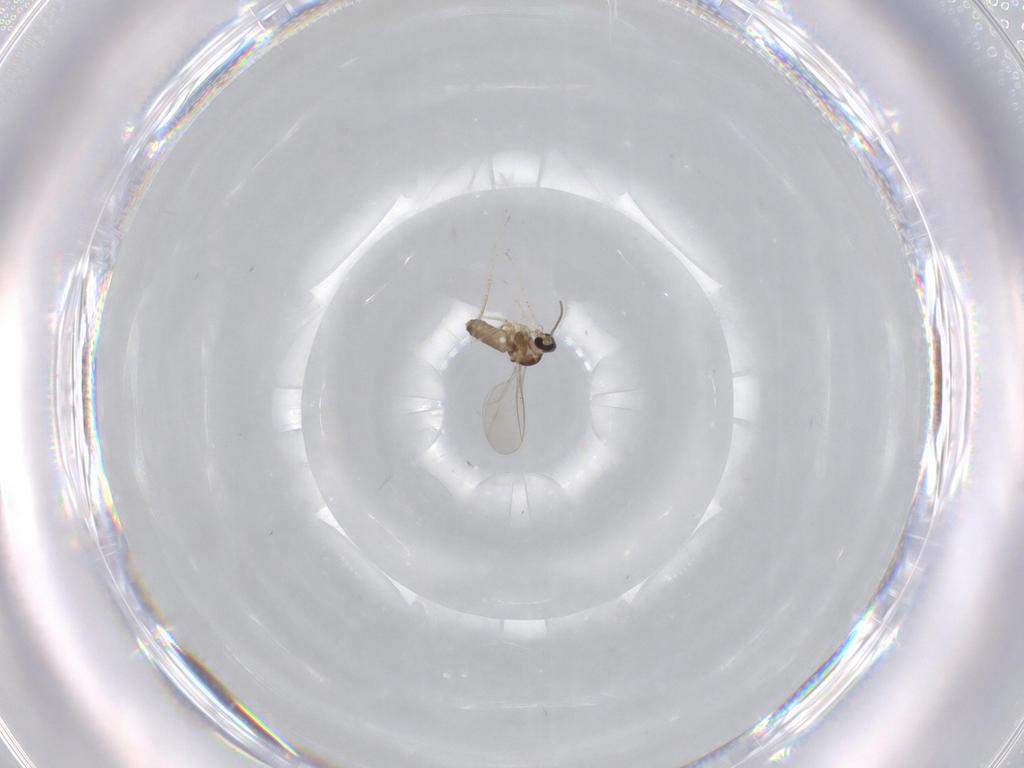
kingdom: Animalia
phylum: Arthropoda
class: Insecta
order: Diptera
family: Cecidomyiidae
